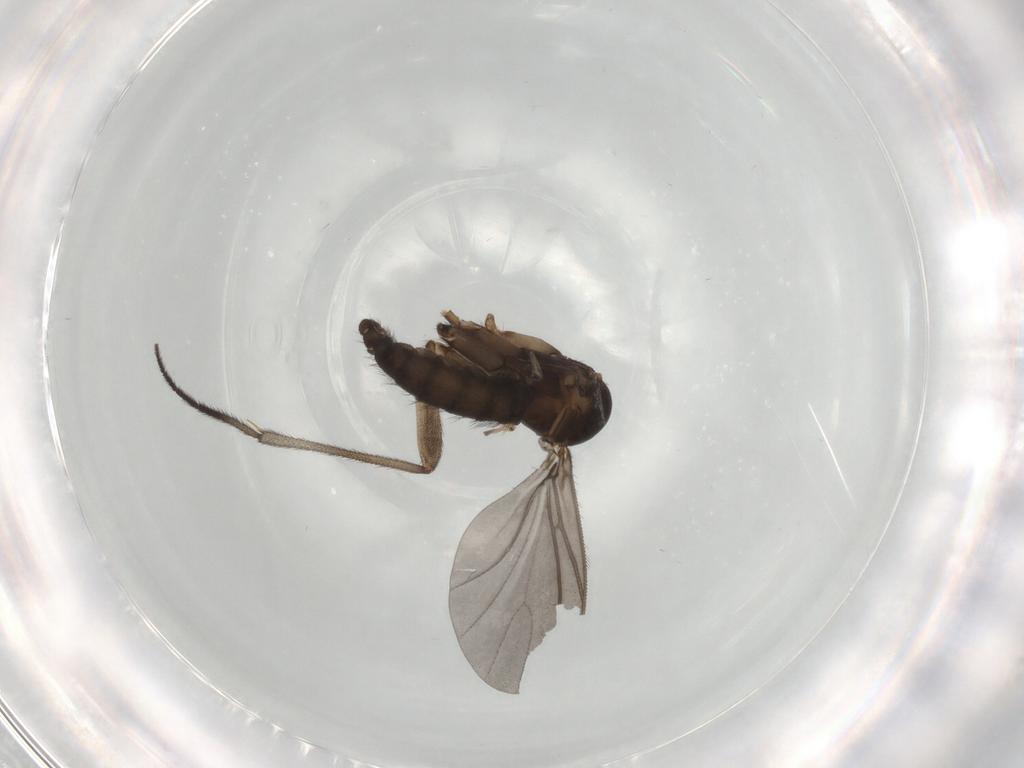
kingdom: Animalia
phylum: Arthropoda
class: Insecta
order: Diptera
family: Sciaridae
